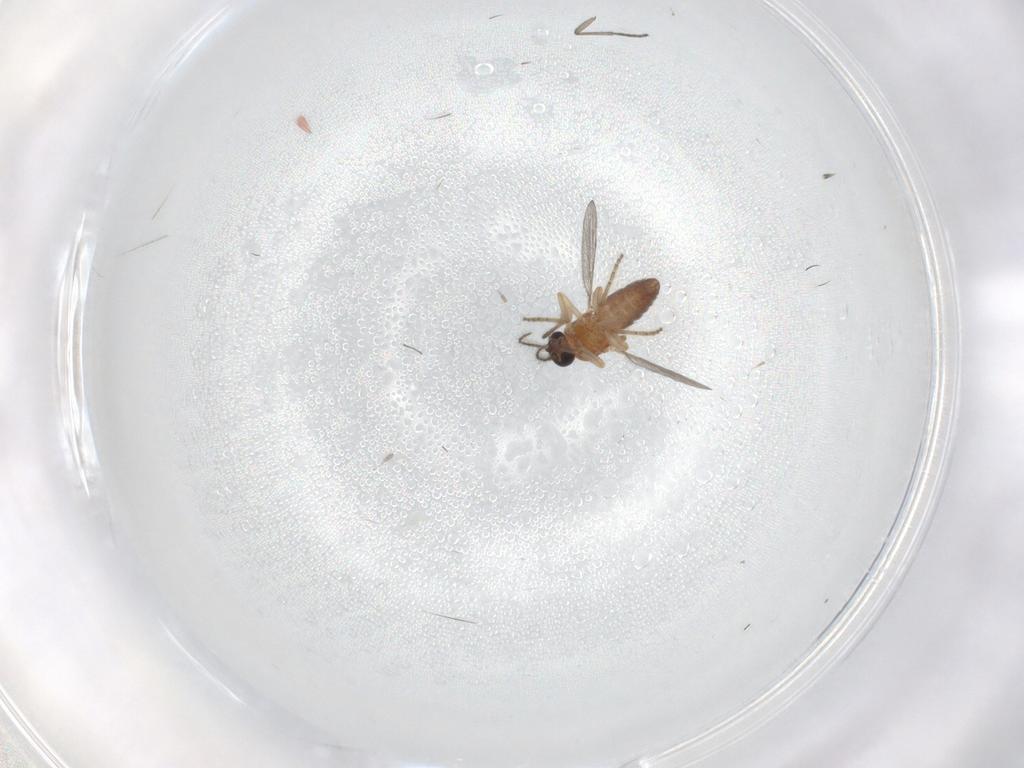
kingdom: Animalia
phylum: Arthropoda
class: Insecta
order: Diptera
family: Ceratopogonidae
